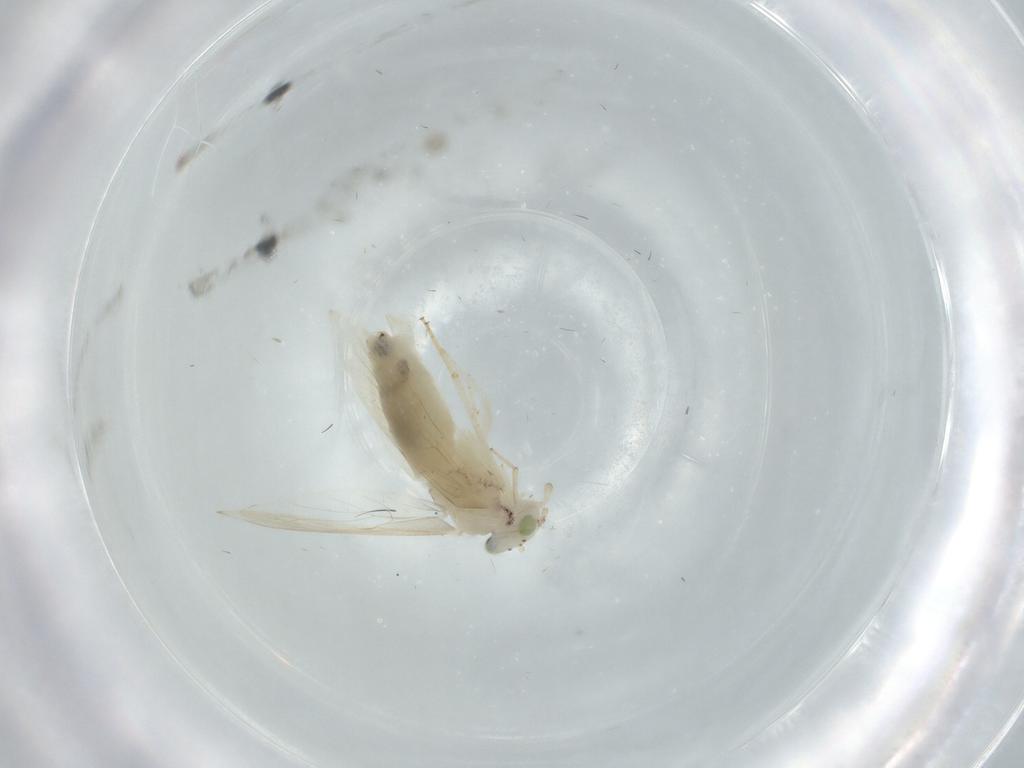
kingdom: Animalia
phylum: Arthropoda
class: Insecta
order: Psocodea
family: Lepidopsocidae
